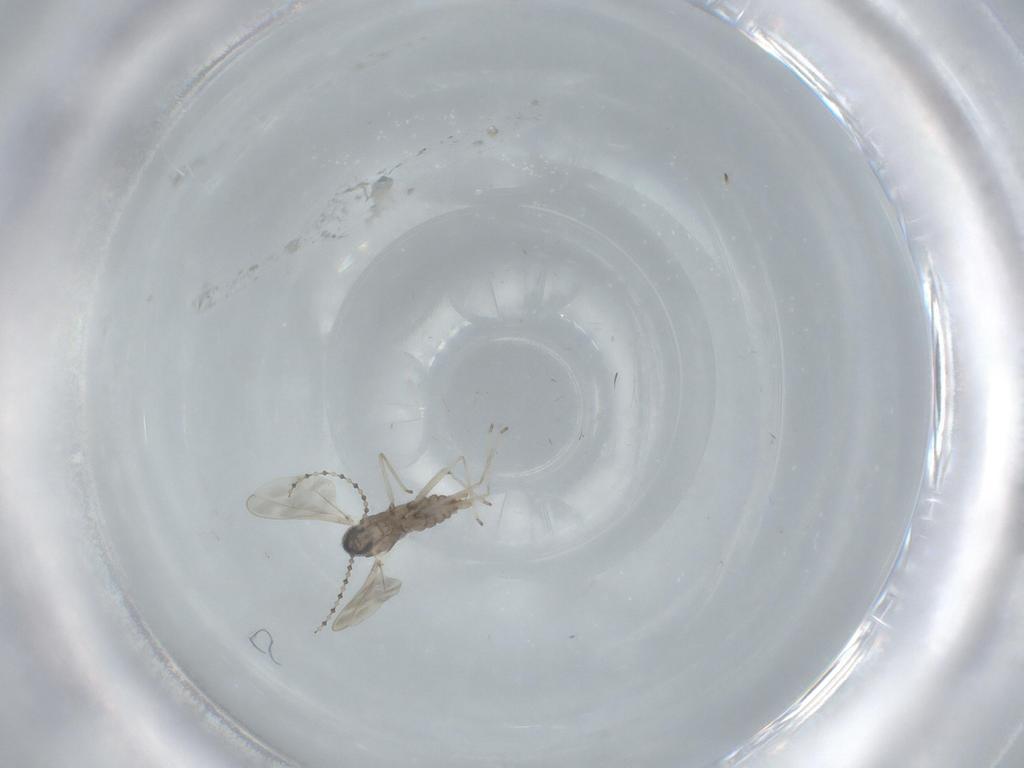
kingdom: Animalia
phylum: Arthropoda
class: Insecta
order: Diptera
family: Cecidomyiidae
